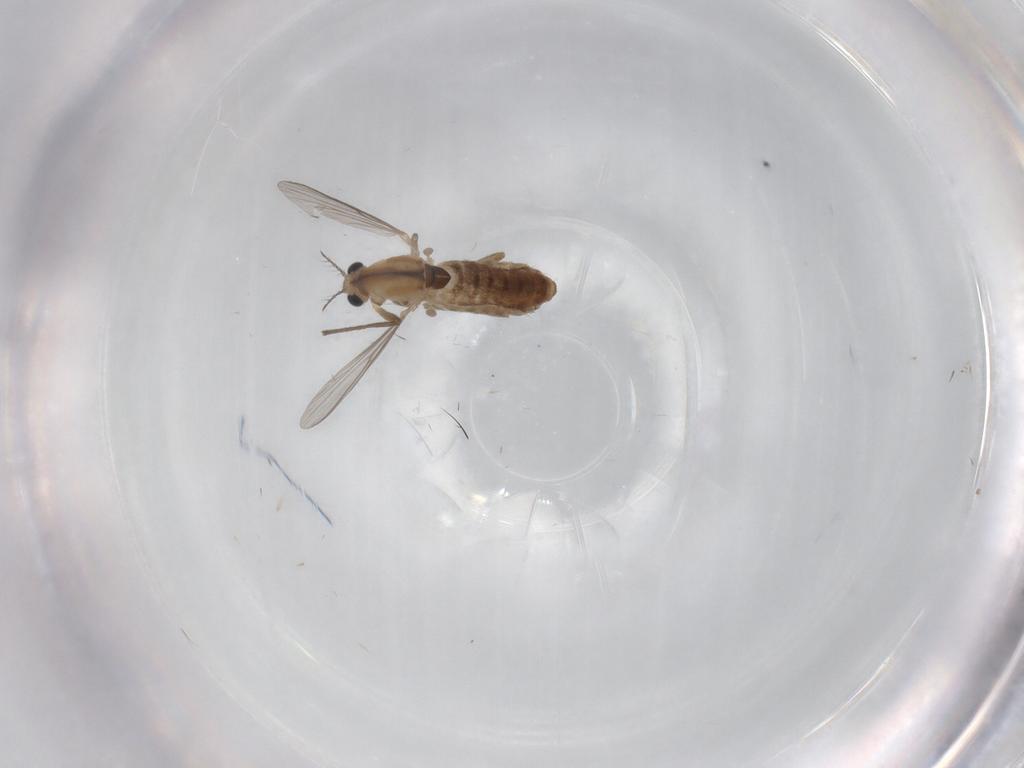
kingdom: Animalia
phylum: Arthropoda
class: Insecta
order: Diptera
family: Chironomidae
